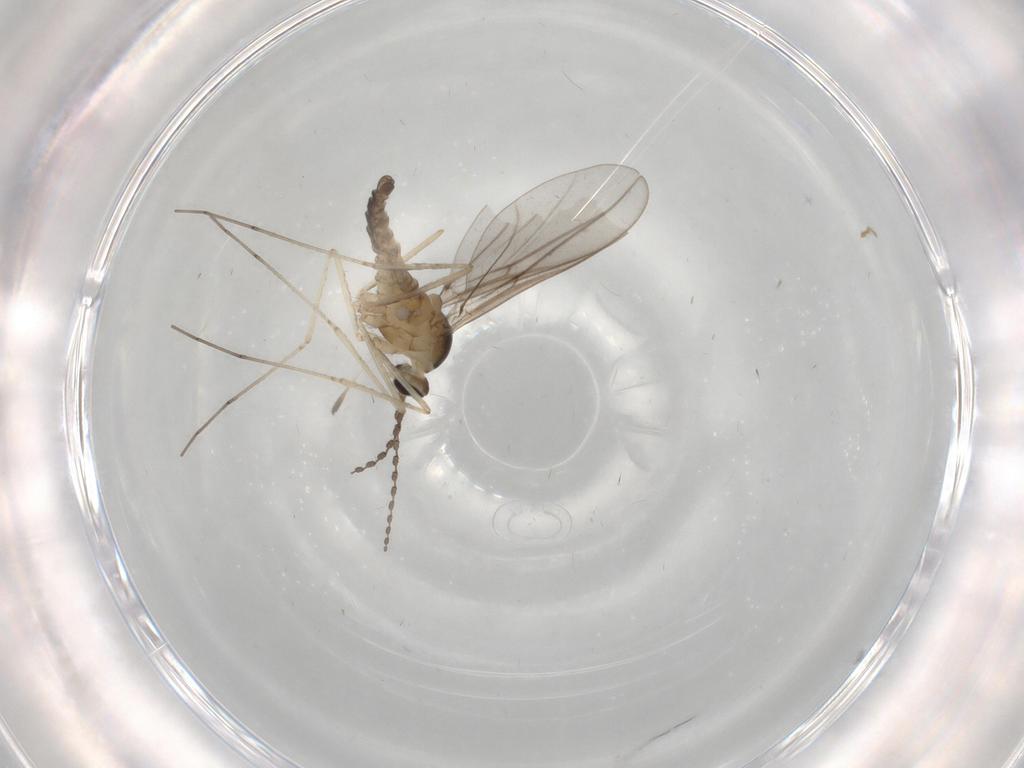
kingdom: Animalia
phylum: Arthropoda
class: Insecta
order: Diptera
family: Cecidomyiidae
